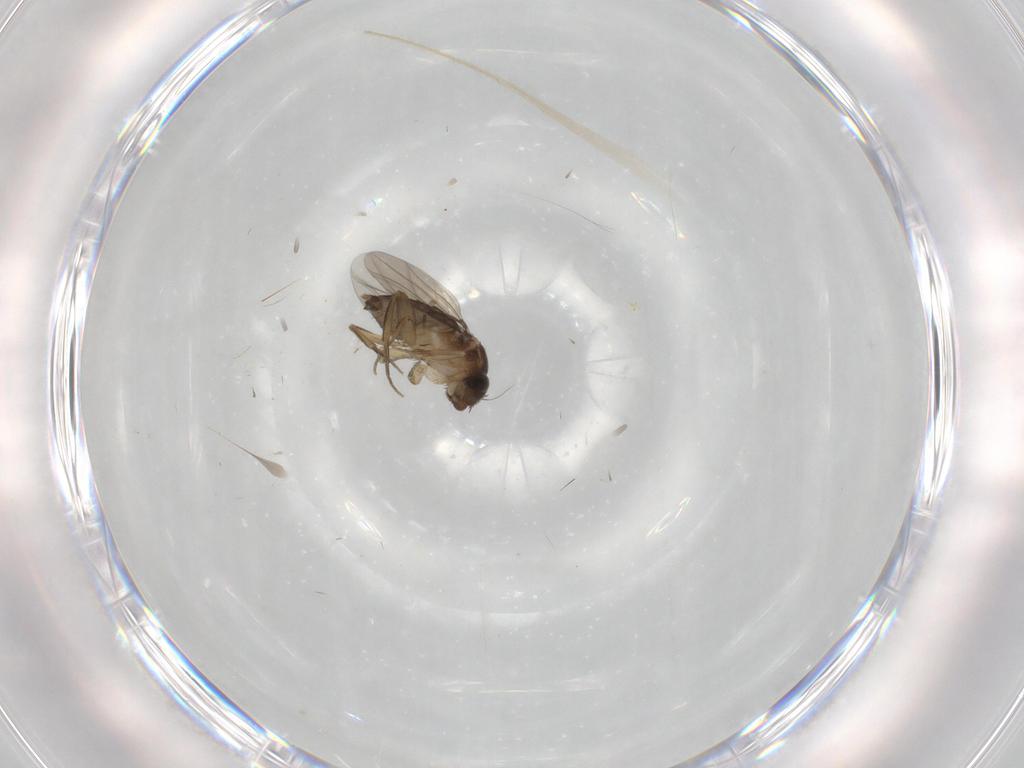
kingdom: Animalia
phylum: Arthropoda
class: Insecta
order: Diptera
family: Phoridae
